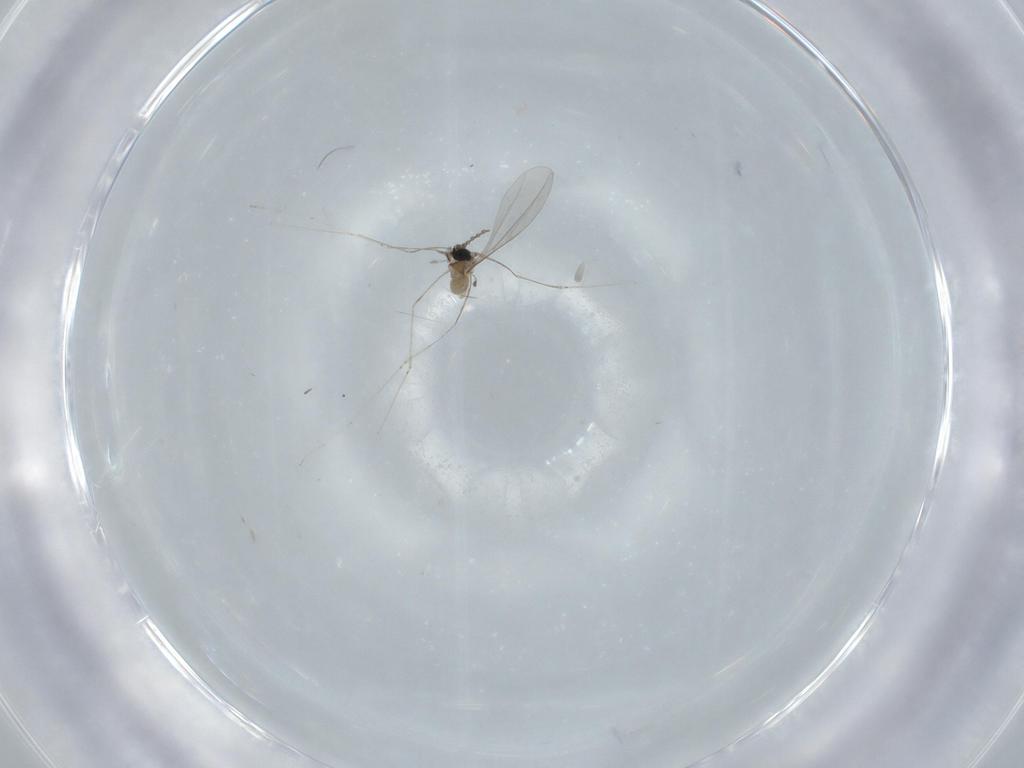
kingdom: Animalia
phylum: Arthropoda
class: Insecta
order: Diptera
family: Cecidomyiidae
